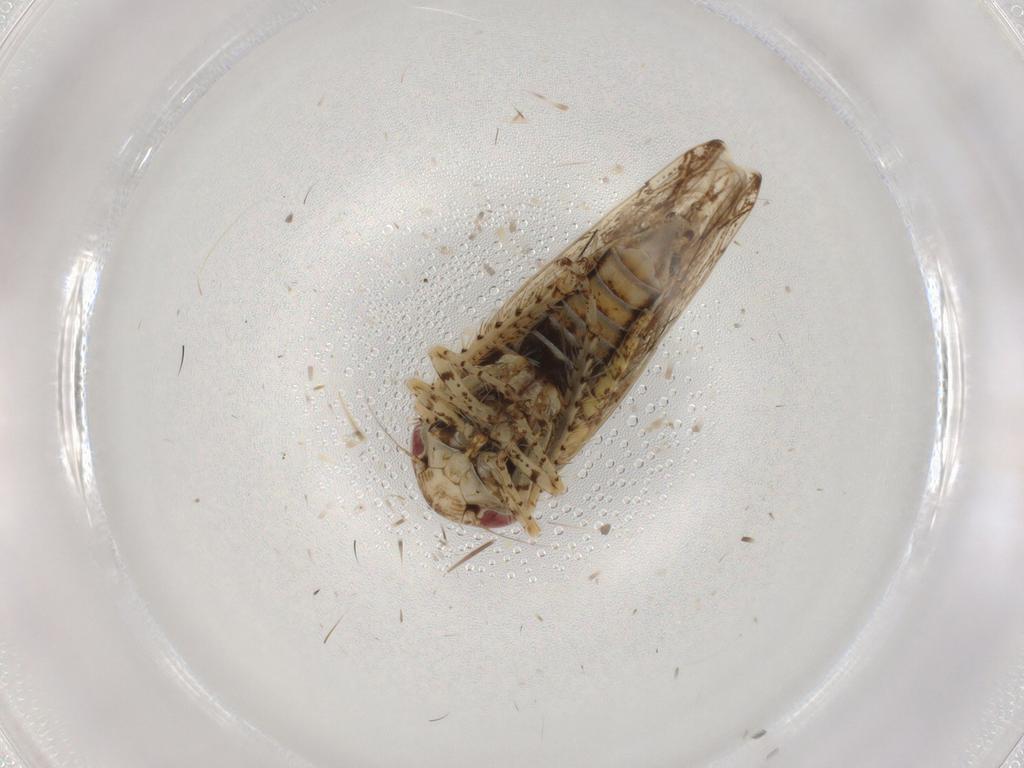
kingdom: Animalia
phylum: Arthropoda
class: Insecta
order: Hemiptera
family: Cicadellidae
